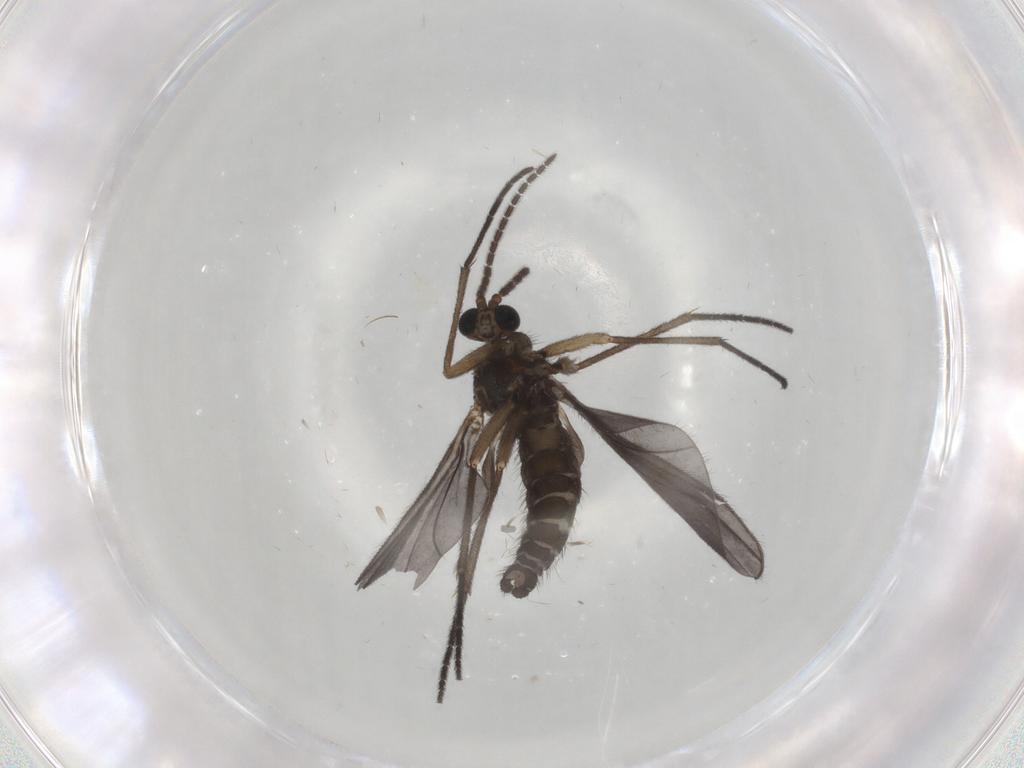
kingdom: Animalia
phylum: Arthropoda
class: Insecta
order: Diptera
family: Sciaridae
